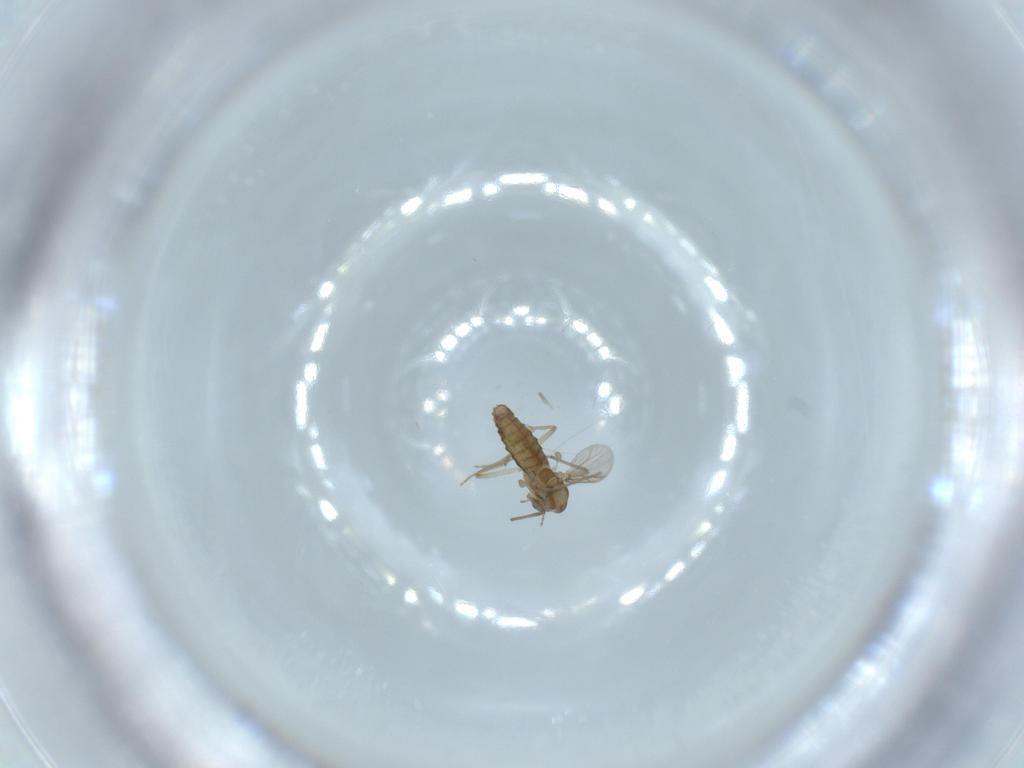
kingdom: Animalia
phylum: Arthropoda
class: Insecta
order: Diptera
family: Chironomidae
